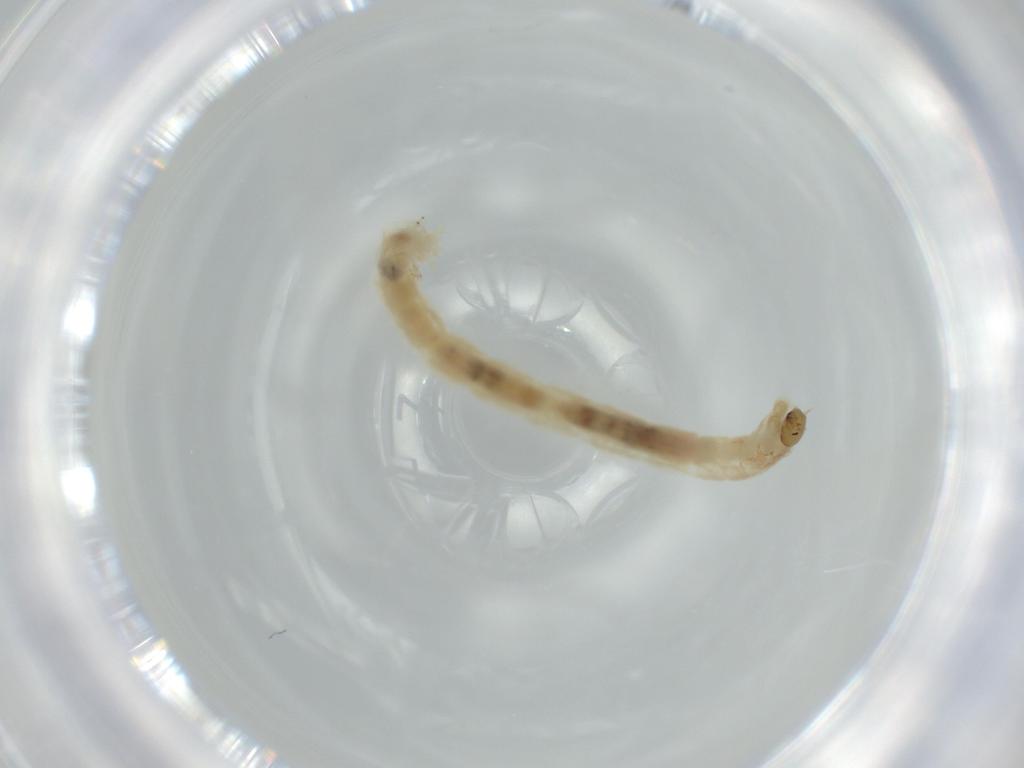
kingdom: Animalia
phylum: Arthropoda
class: Insecta
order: Diptera
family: Chironomidae
